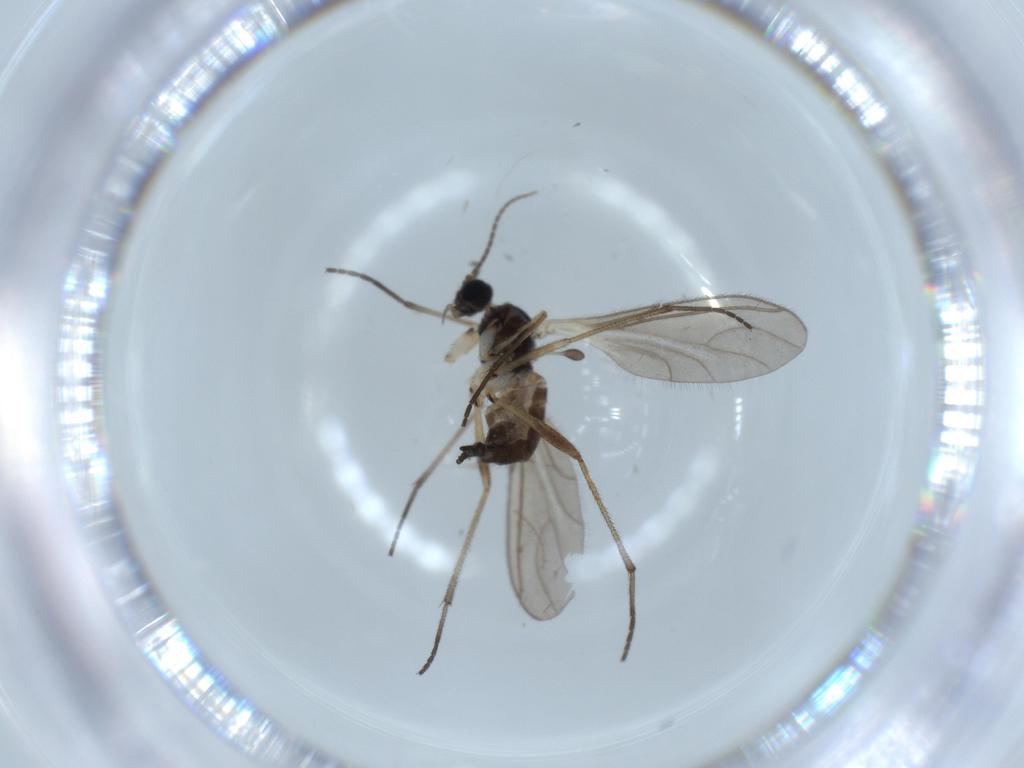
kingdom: Animalia
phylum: Arthropoda
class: Insecta
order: Diptera
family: Sciaridae
